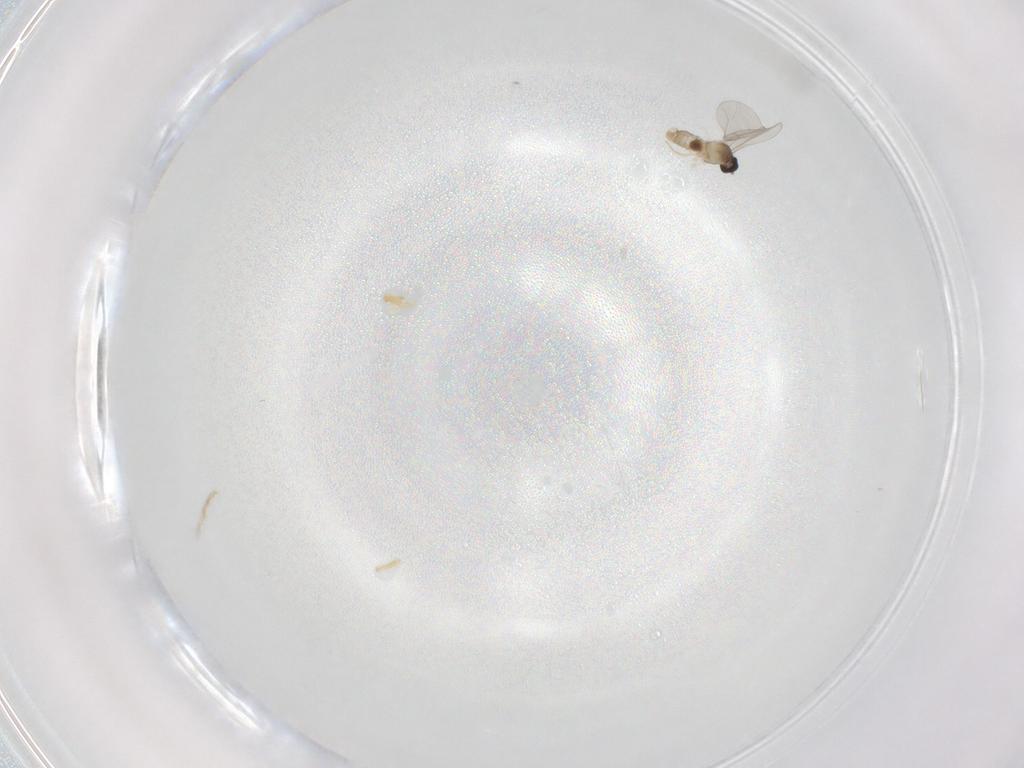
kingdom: Animalia
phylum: Arthropoda
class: Insecta
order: Diptera
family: Cecidomyiidae
